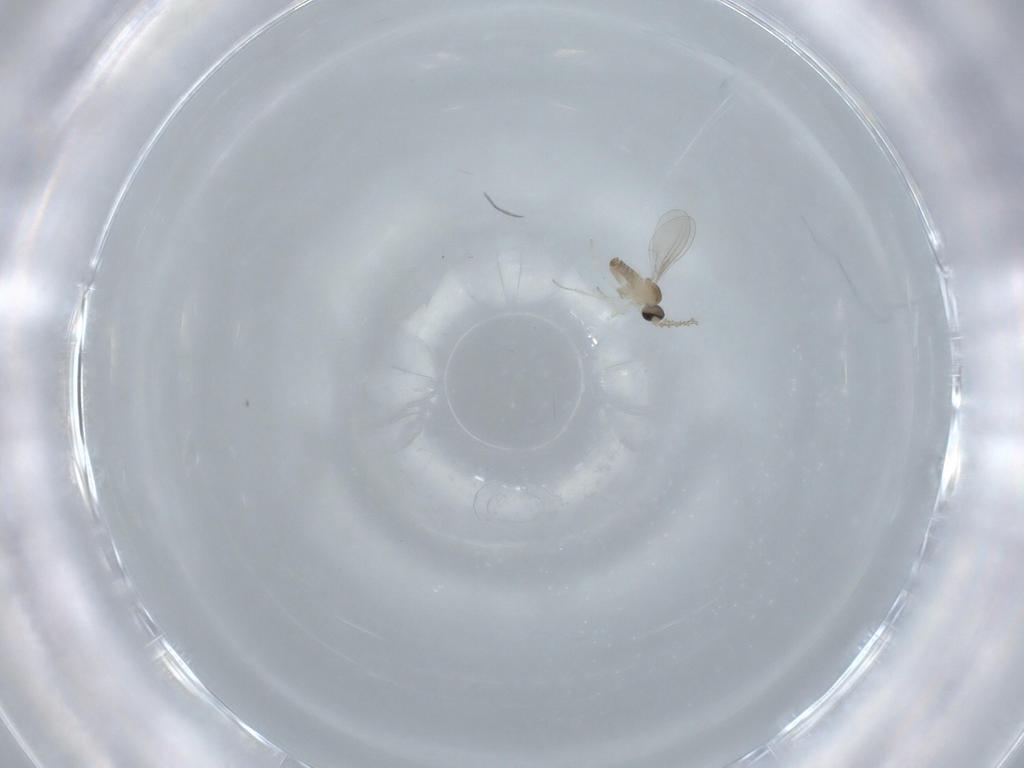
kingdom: Animalia
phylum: Arthropoda
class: Insecta
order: Diptera
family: Cecidomyiidae
